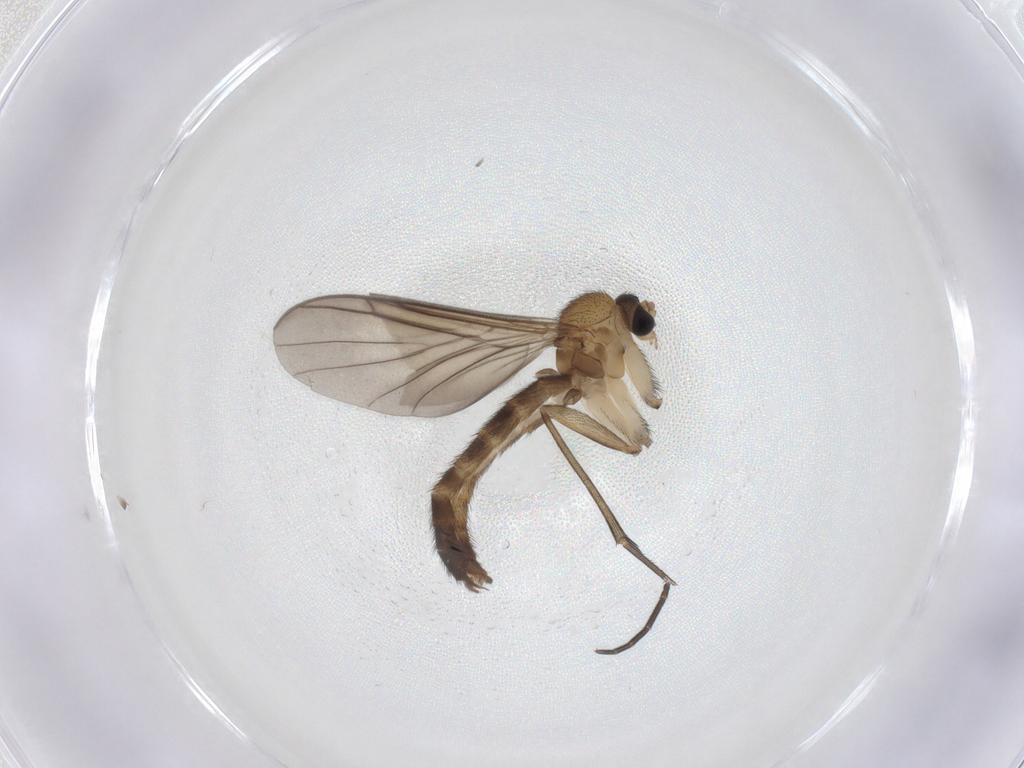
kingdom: Animalia
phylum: Arthropoda
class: Insecta
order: Diptera
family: Keroplatidae
